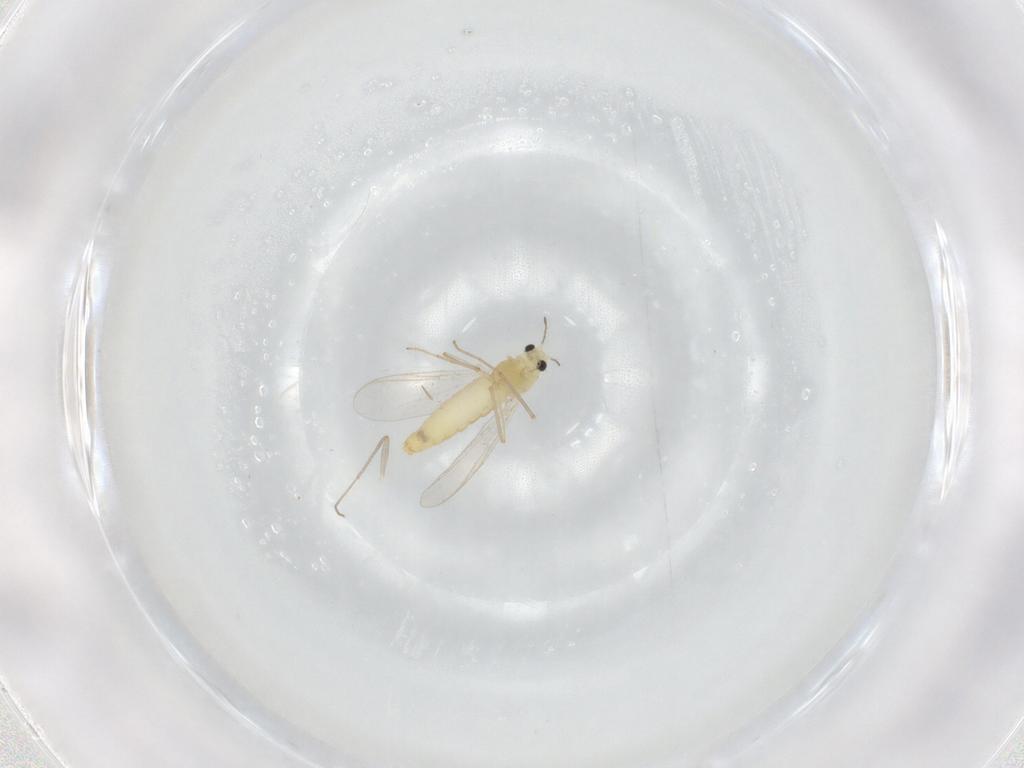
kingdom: Animalia
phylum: Arthropoda
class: Insecta
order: Diptera
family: Chironomidae
